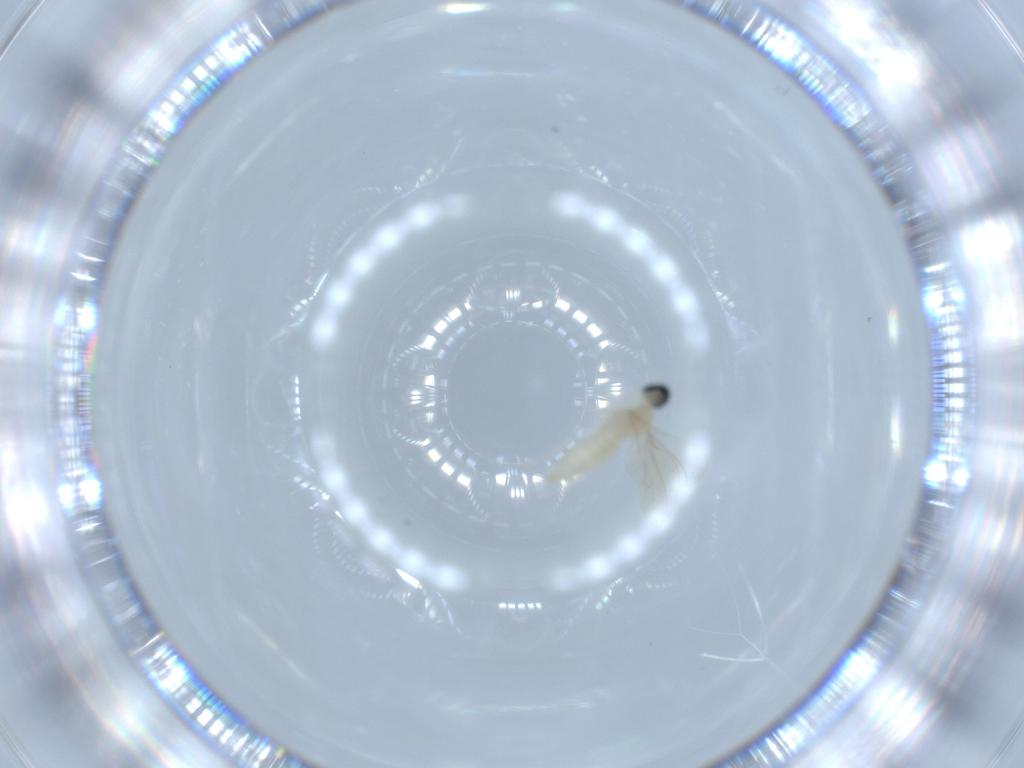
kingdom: Animalia
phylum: Arthropoda
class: Insecta
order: Diptera
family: Cecidomyiidae
